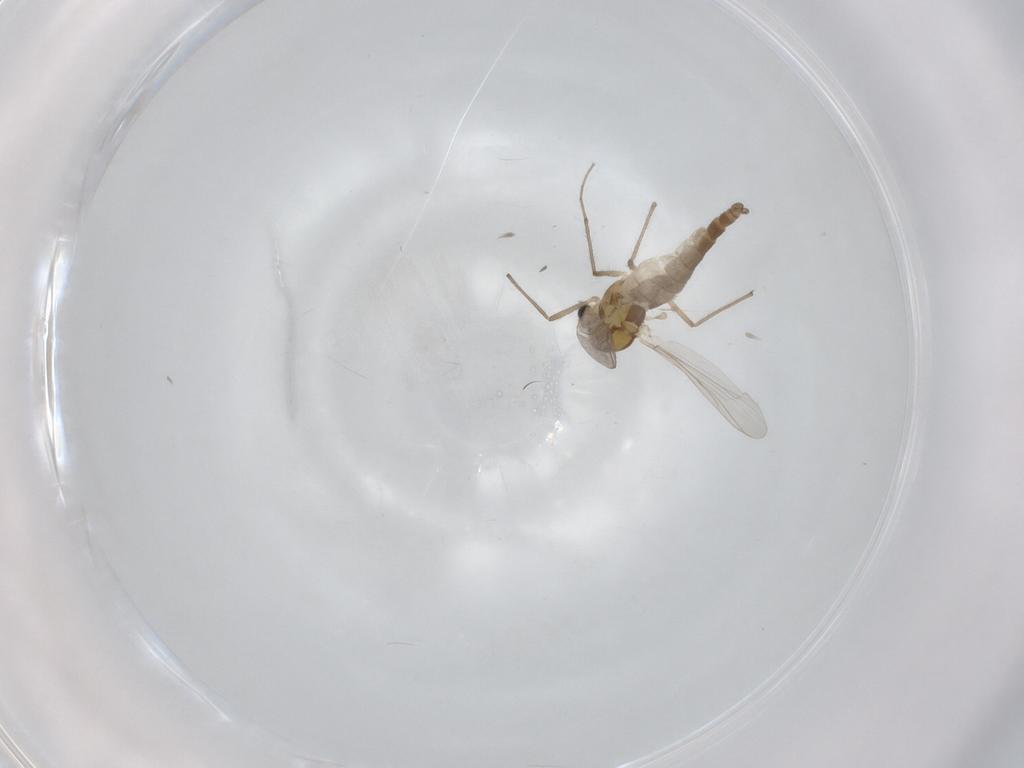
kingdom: Animalia
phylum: Arthropoda
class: Insecta
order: Diptera
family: Chironomidae
